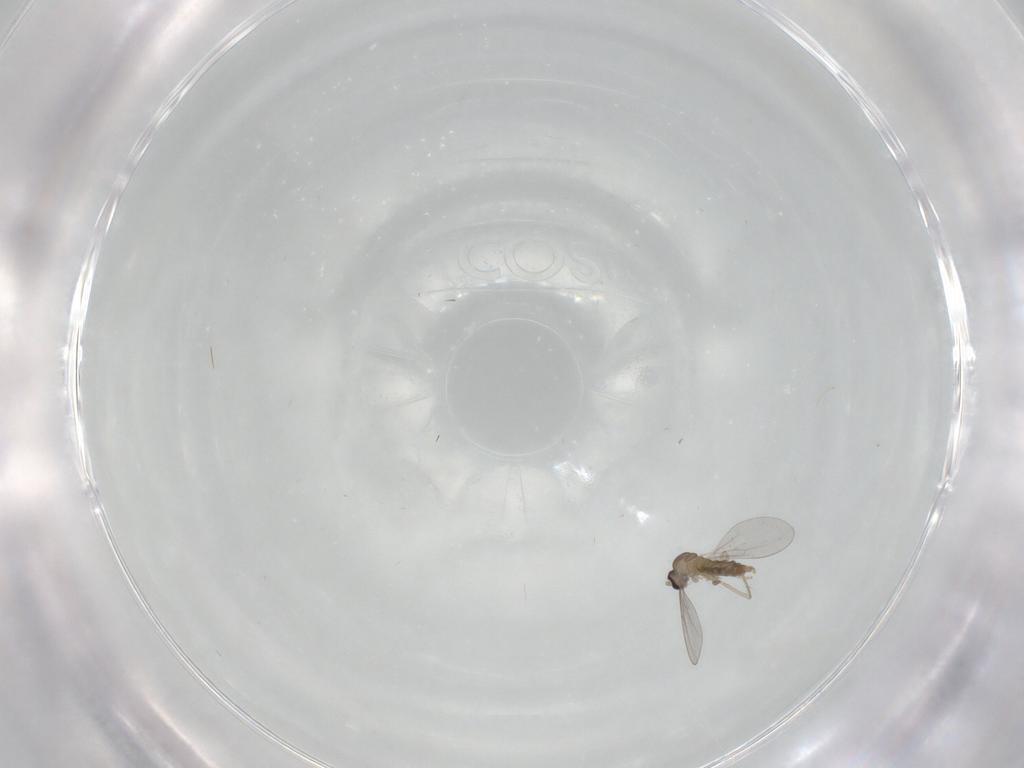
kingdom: Animalia
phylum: Arthropoda
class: Insecta
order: Diptera
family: Cecidomyiidae
